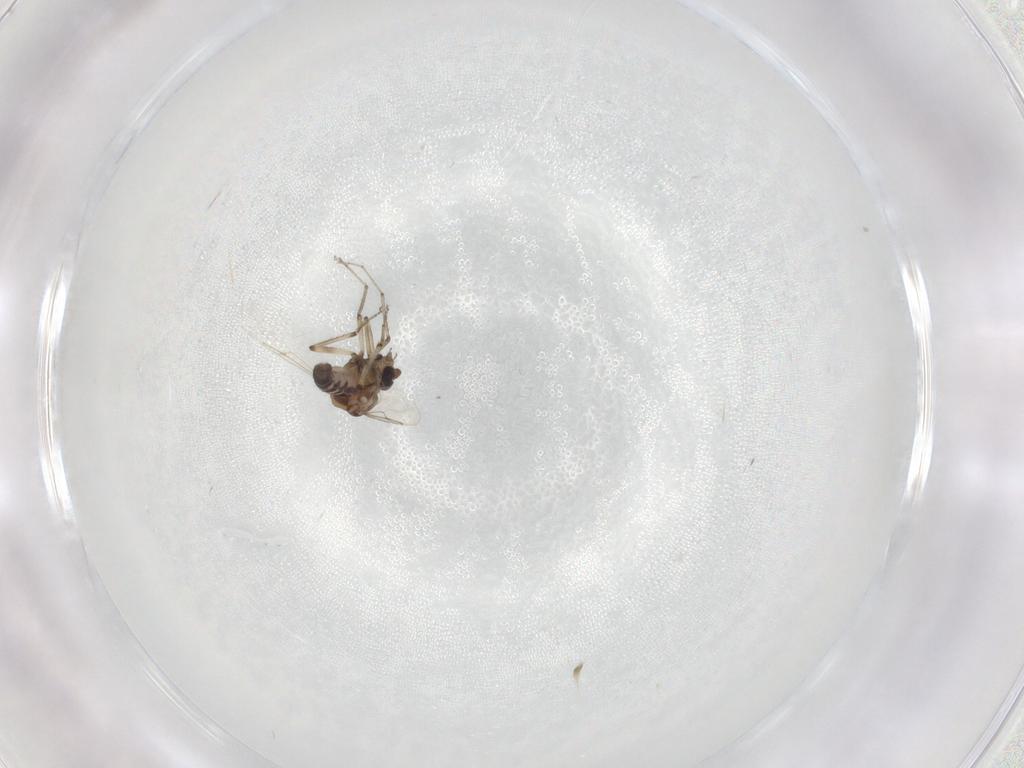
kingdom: Animalia
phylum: Arthropoda
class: Insecta
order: Diptera
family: Ceratopogonidae
